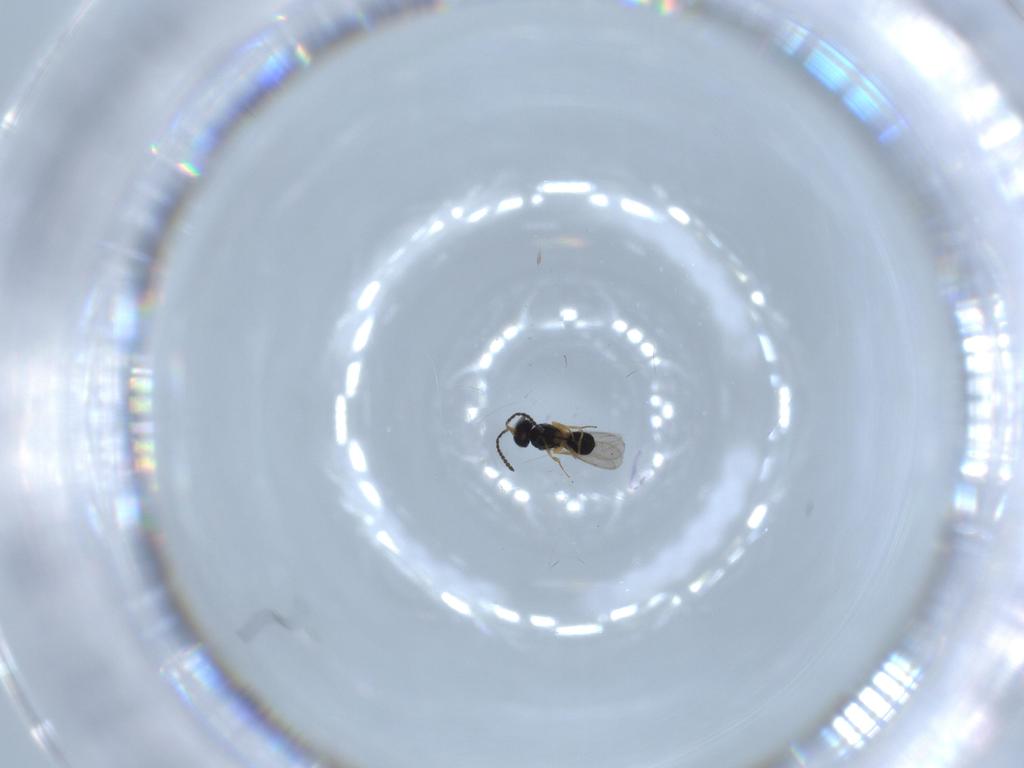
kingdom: Animalia
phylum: Arthropoda
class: Insecta
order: Hymenoptera
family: Scelionidae
